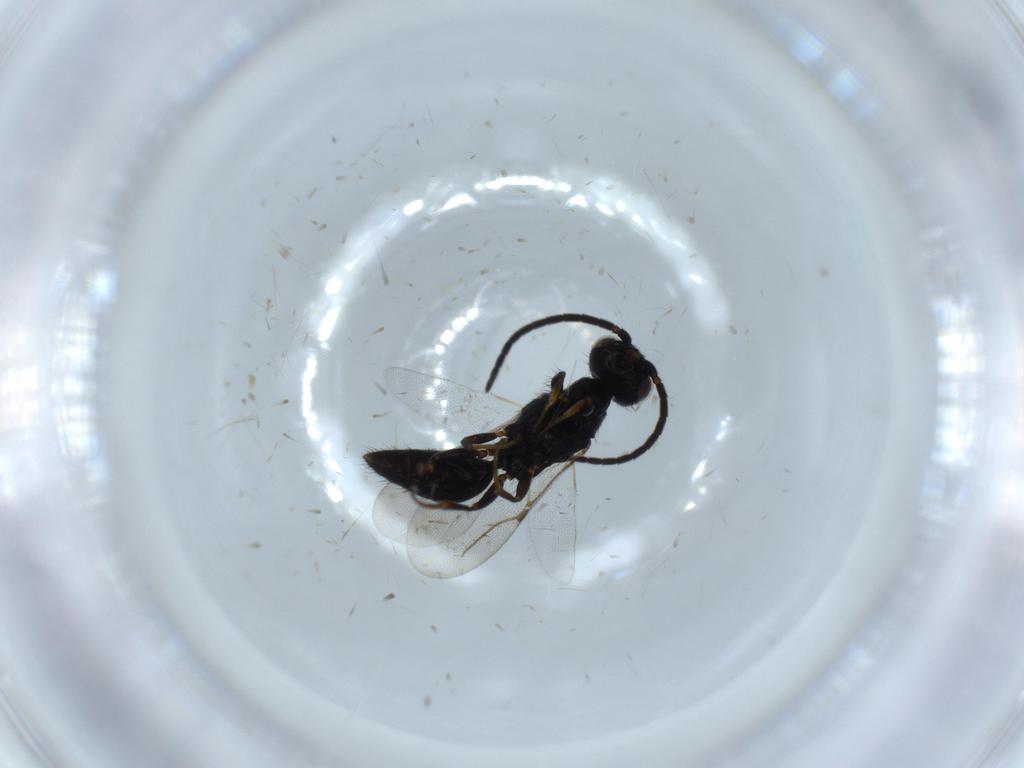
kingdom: Animalia
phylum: Arthropoda
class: Insecta
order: Hymenoptera
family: Bethylidae
